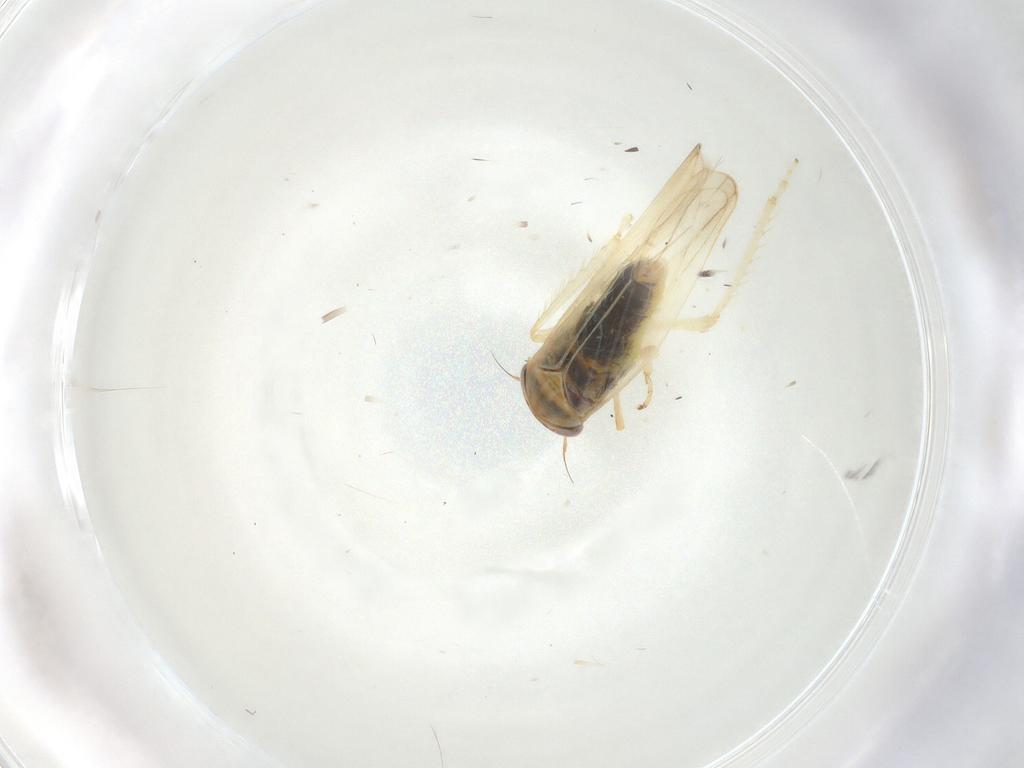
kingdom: Animalia
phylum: Arthropoda
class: Insecta
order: Hemiptera
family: Cicadellidae
